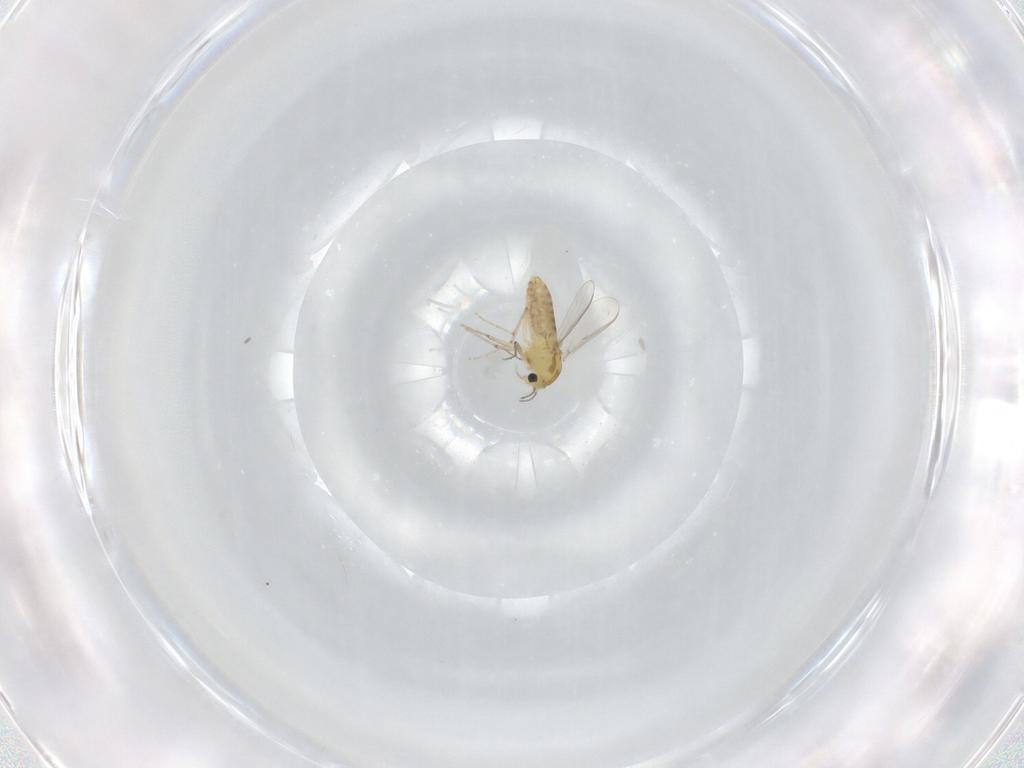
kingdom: Animalia
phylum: Arthropoda
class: Insecta
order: Diptera
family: Chironomidae
